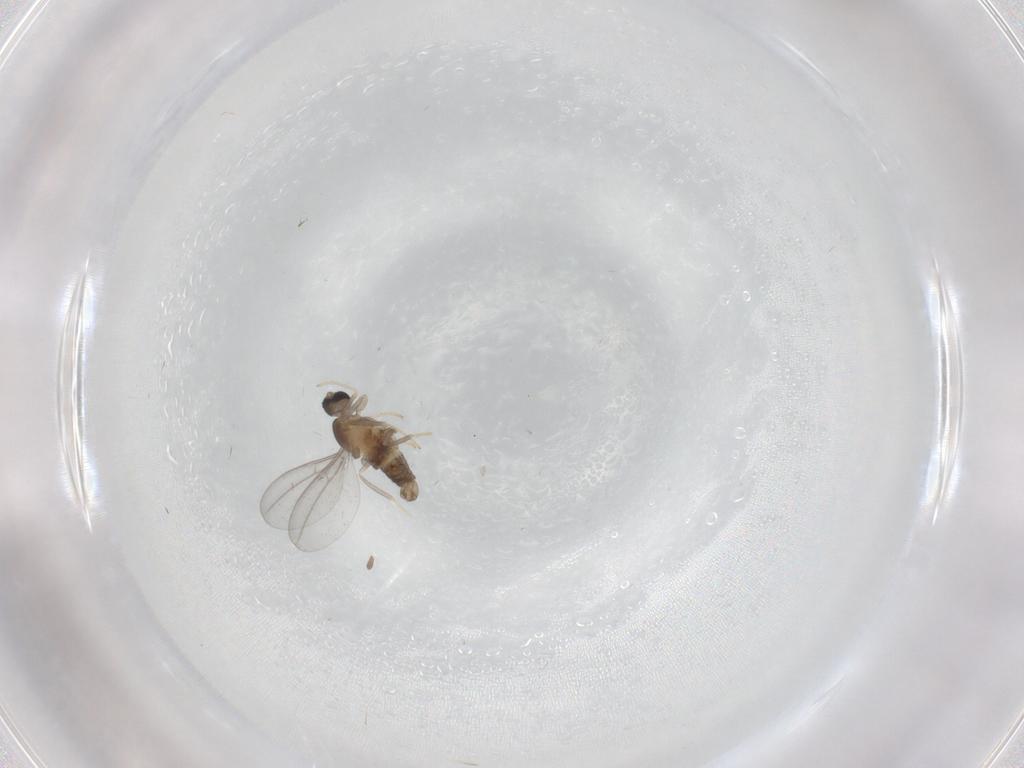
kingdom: Animalia
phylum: Arthropoda
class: Insecta
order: Diptera
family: Cecidomyiidae
